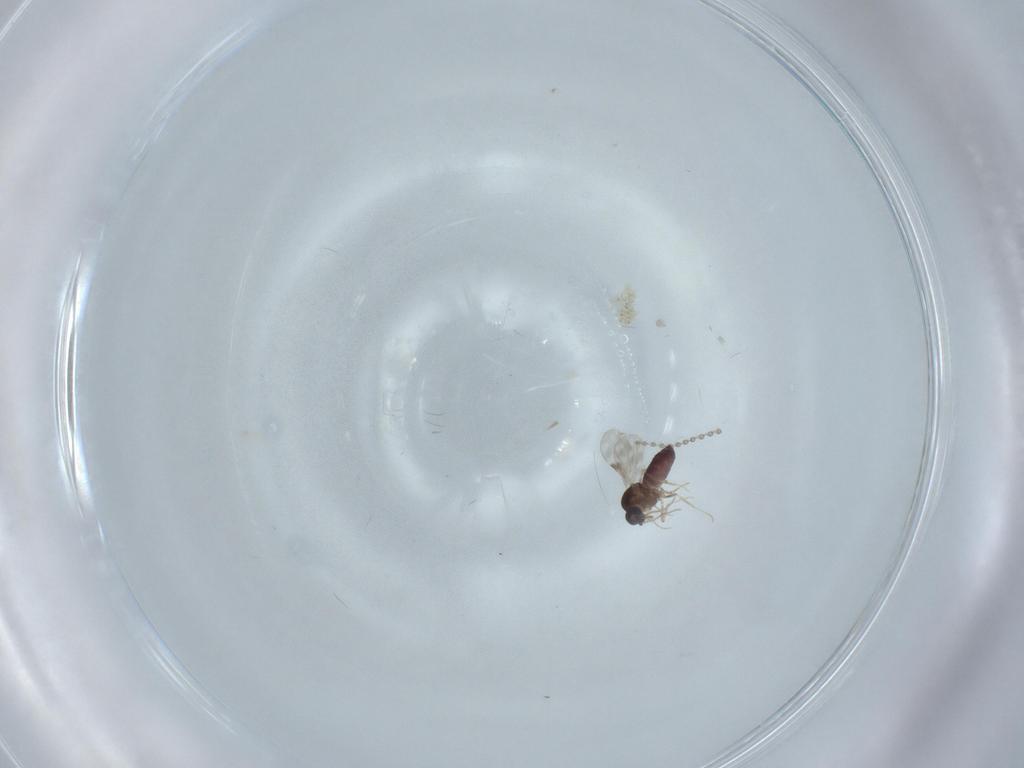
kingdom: Animalia
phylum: Arthropoda
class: Insecta
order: Diptera
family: Cecidomyiidae
